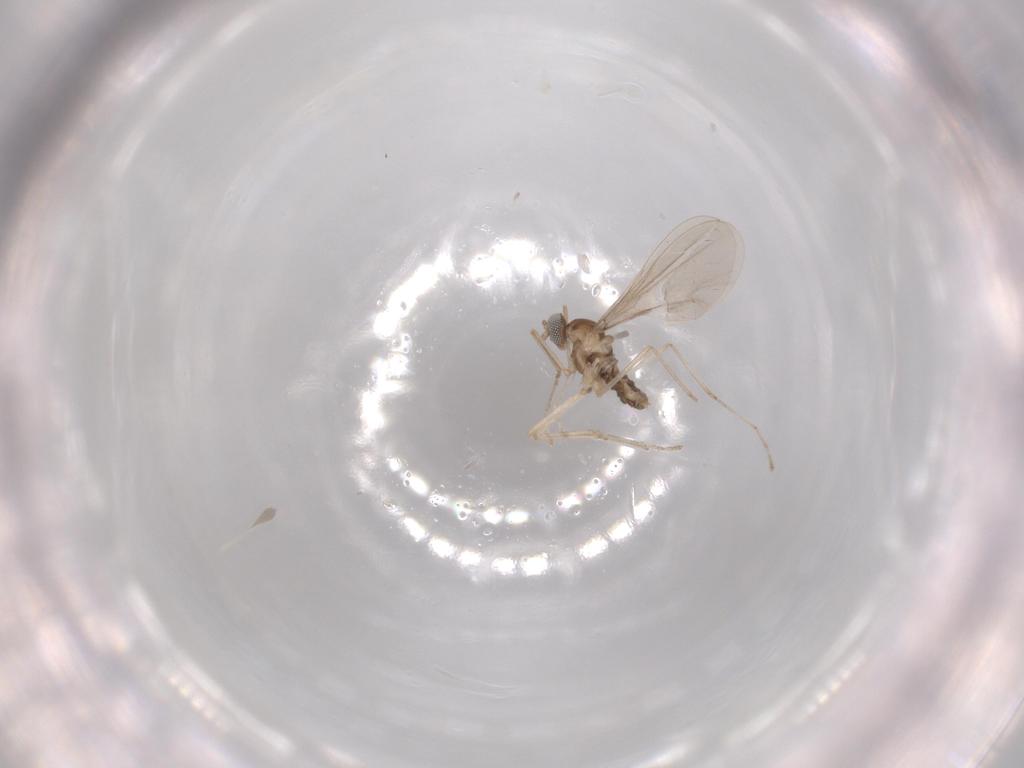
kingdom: Animalia
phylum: Arthropoda
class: Insecta
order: Diptera
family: Cecidomyiidae
